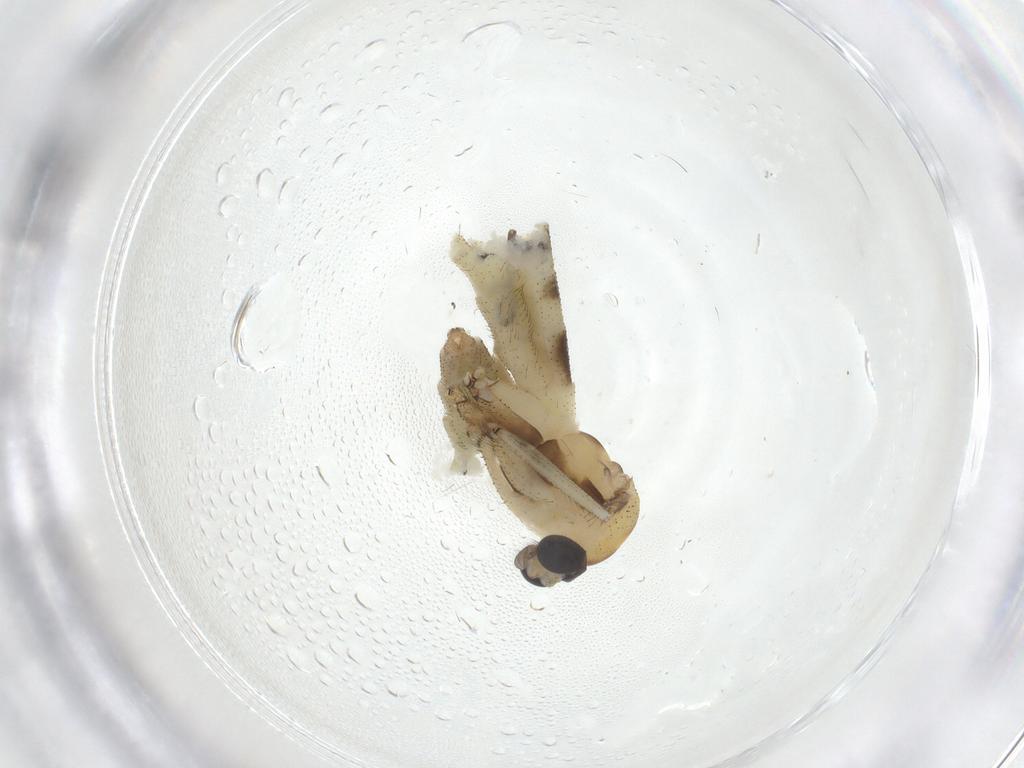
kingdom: Animalia
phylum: Arthropoda
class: Insecta
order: Diptera
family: Keroplatidae
